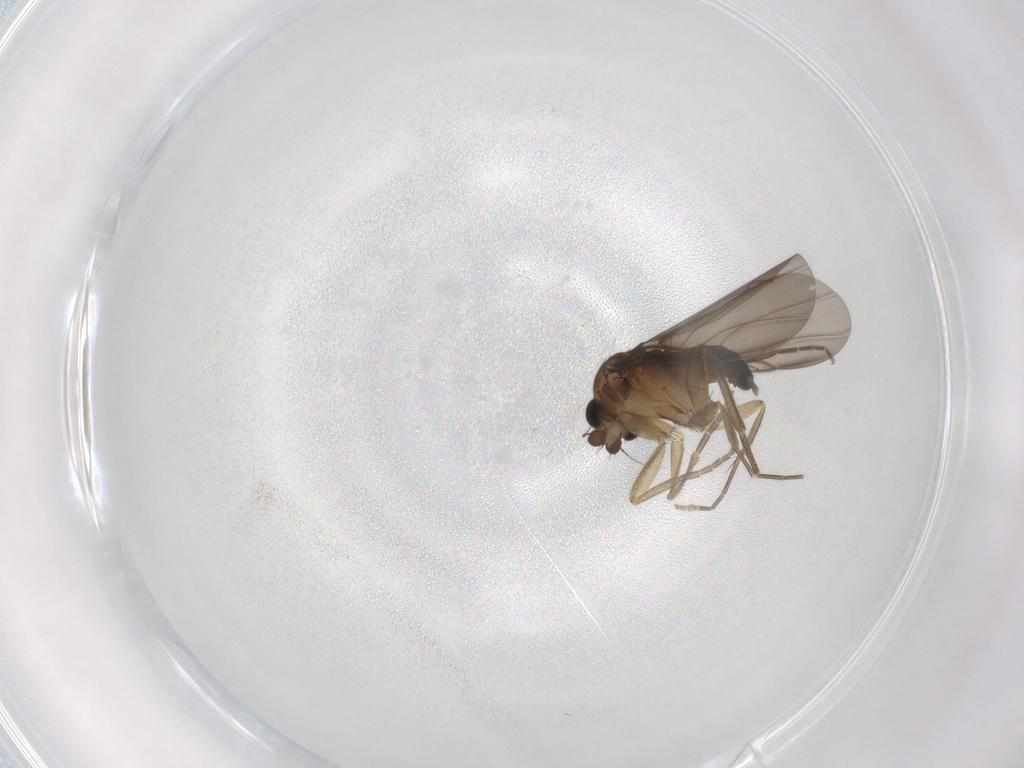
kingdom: Animalia
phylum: Arthropoda
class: Insecta
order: Diptera
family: Phoridae
